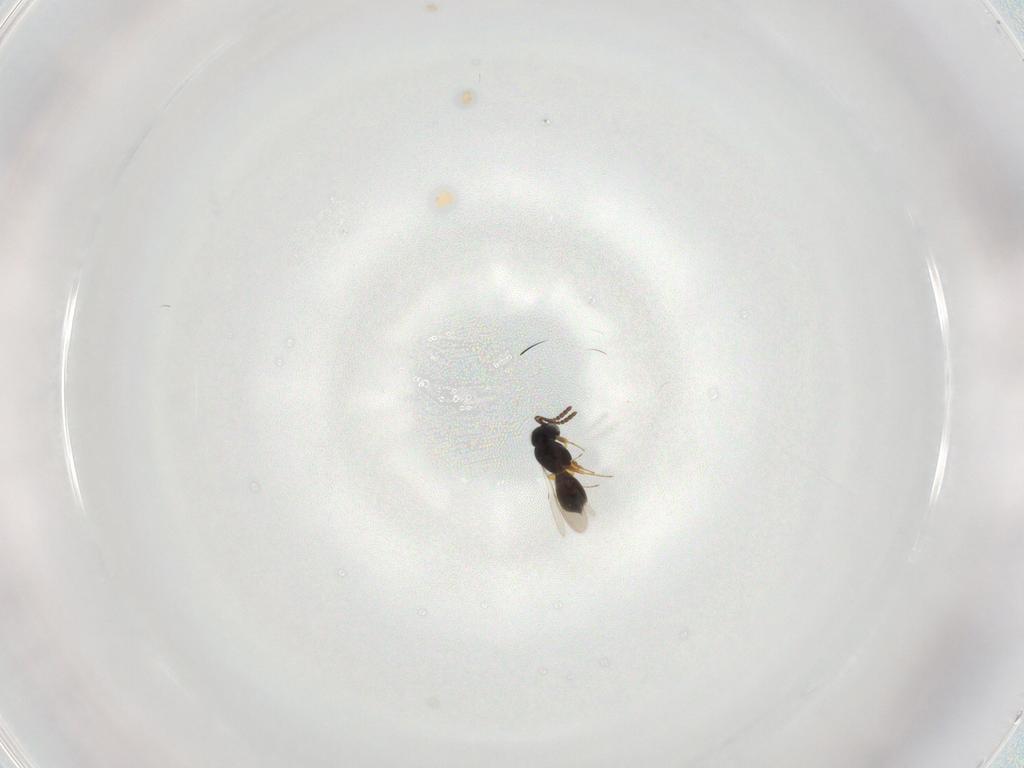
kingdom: Animalia
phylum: Arthropoda
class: Insecta
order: Hymenoptera
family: Scelionidae
